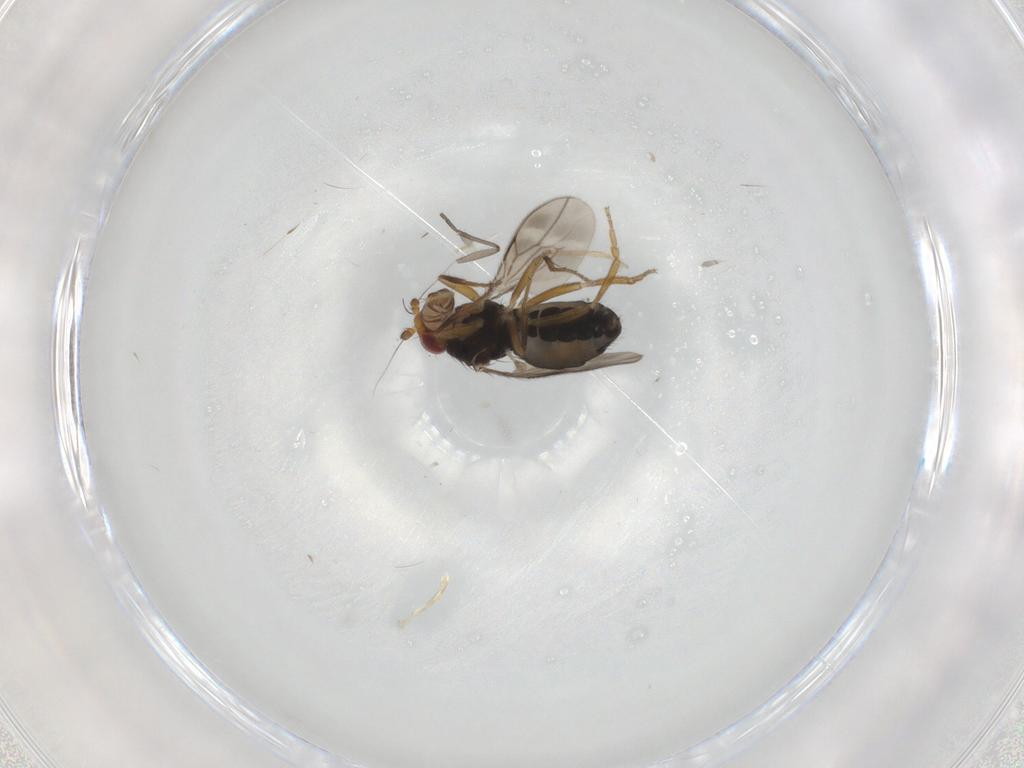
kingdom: Animalia
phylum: Arthropoda
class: Insecta
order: Diptera
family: Sphaeroceridae
